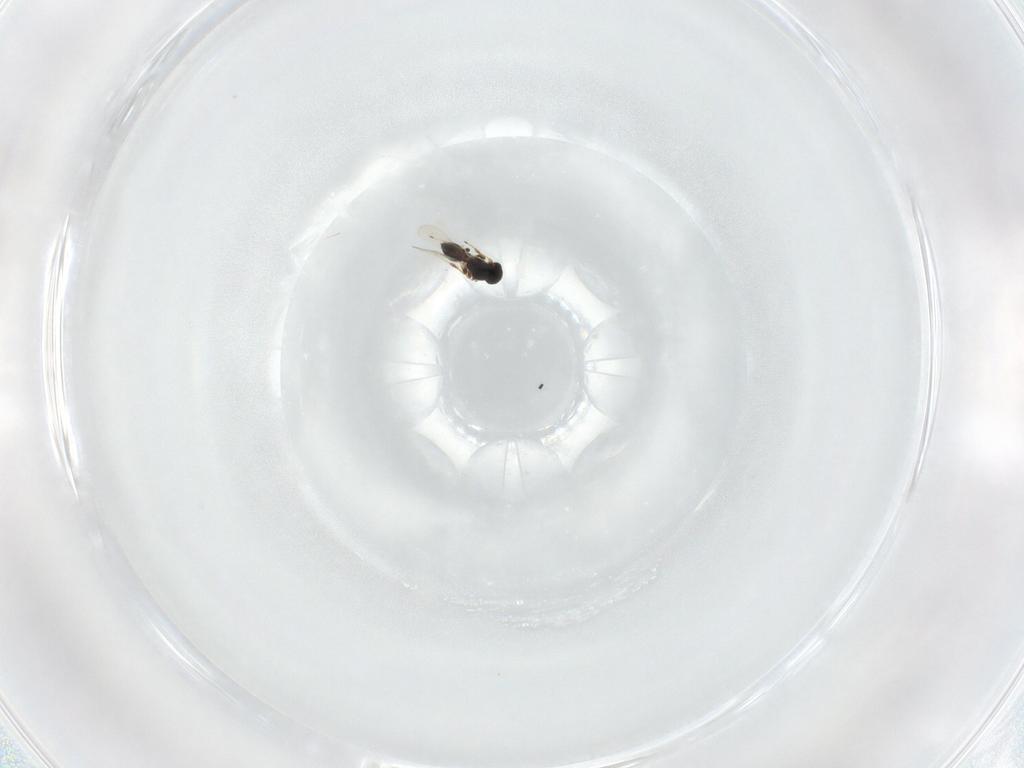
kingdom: Animalia
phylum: Arthropoda
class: Insecta
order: Hymenoptera
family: Platygastridae
